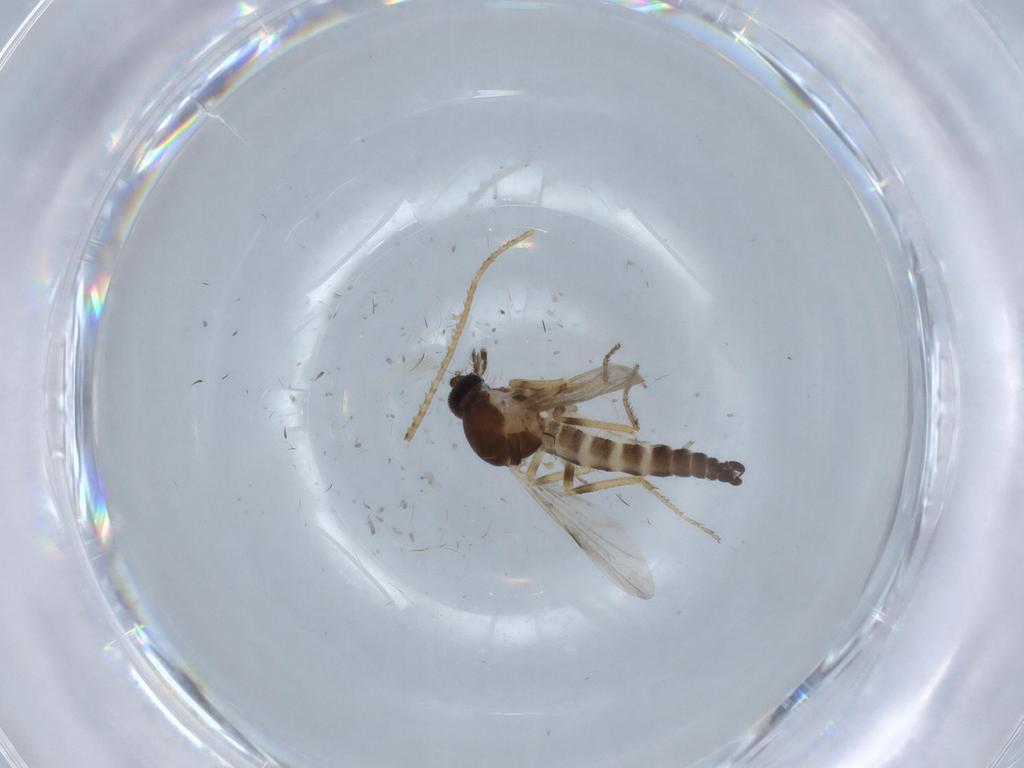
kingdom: Animalia
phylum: Arthropoda
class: Insecta
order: Diptera
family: Ceratopogonidae
